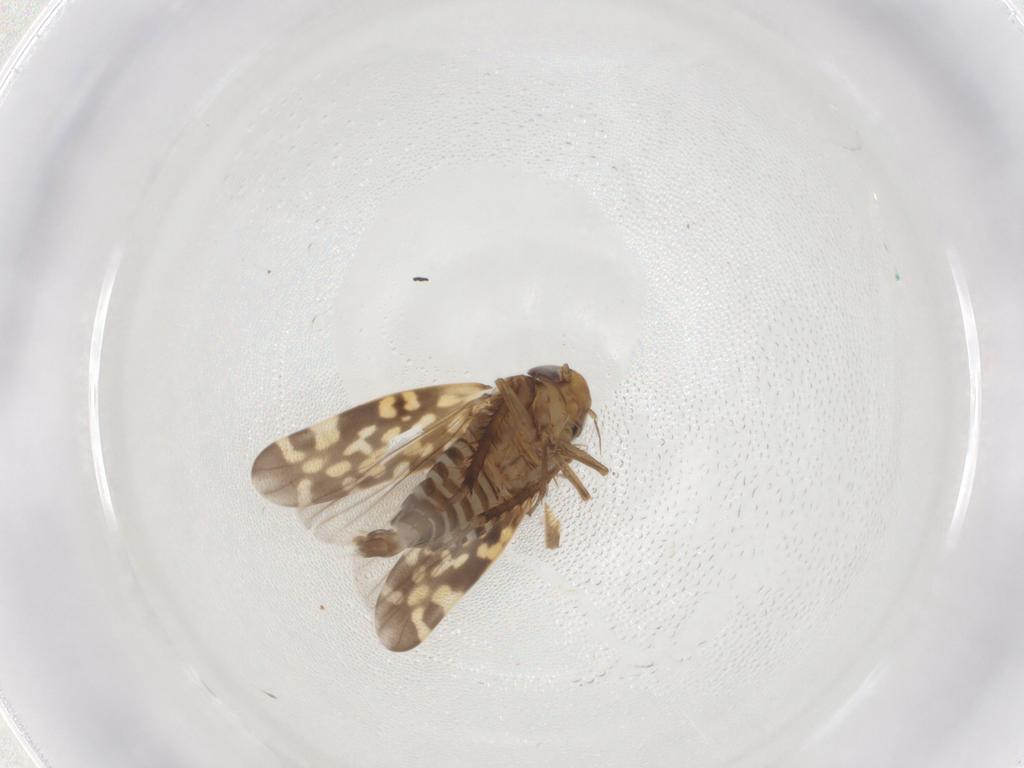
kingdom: Animalia
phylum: Arthropoda
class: Insecta
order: Hemiptera
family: Cicadellidae
